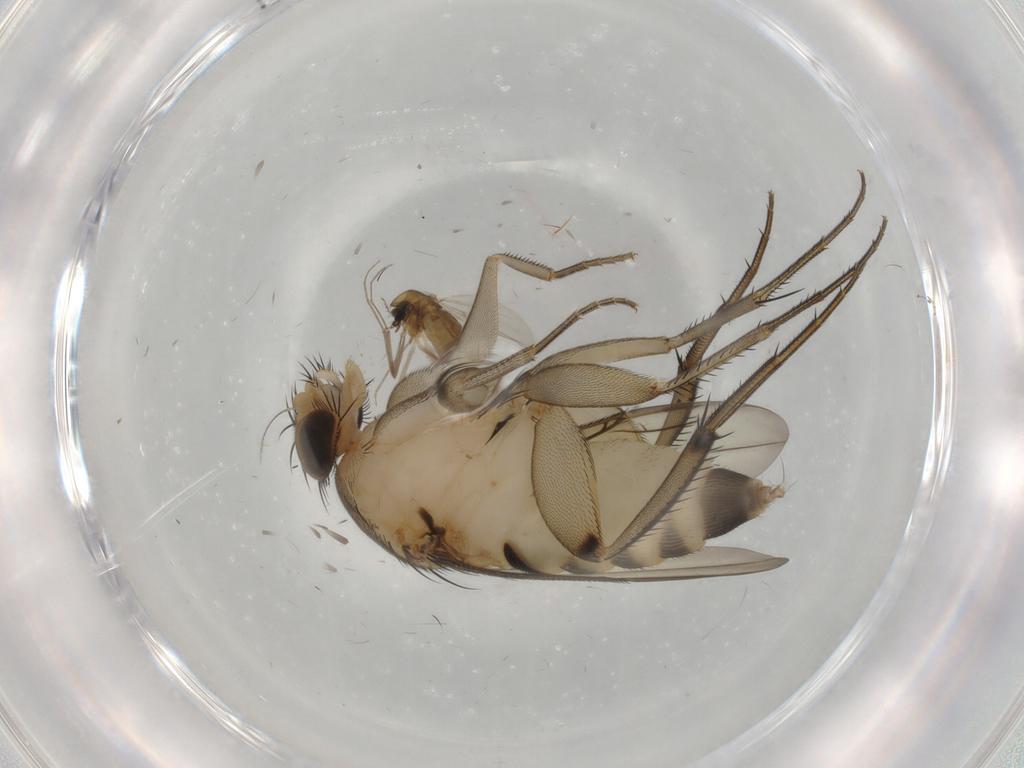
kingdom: Animalia
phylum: Arthropoda
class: Insecta
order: Diptera
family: Phoridae
